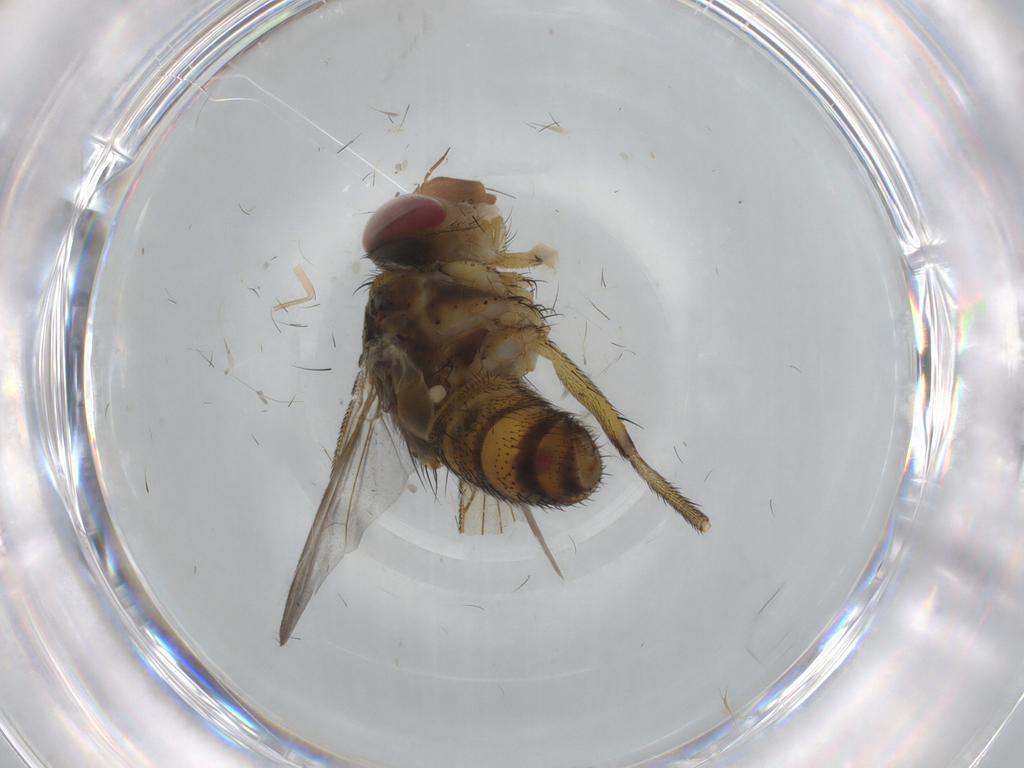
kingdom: Animalia
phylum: Arthropoda
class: Insecta
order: Diptera
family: Tachinidae
